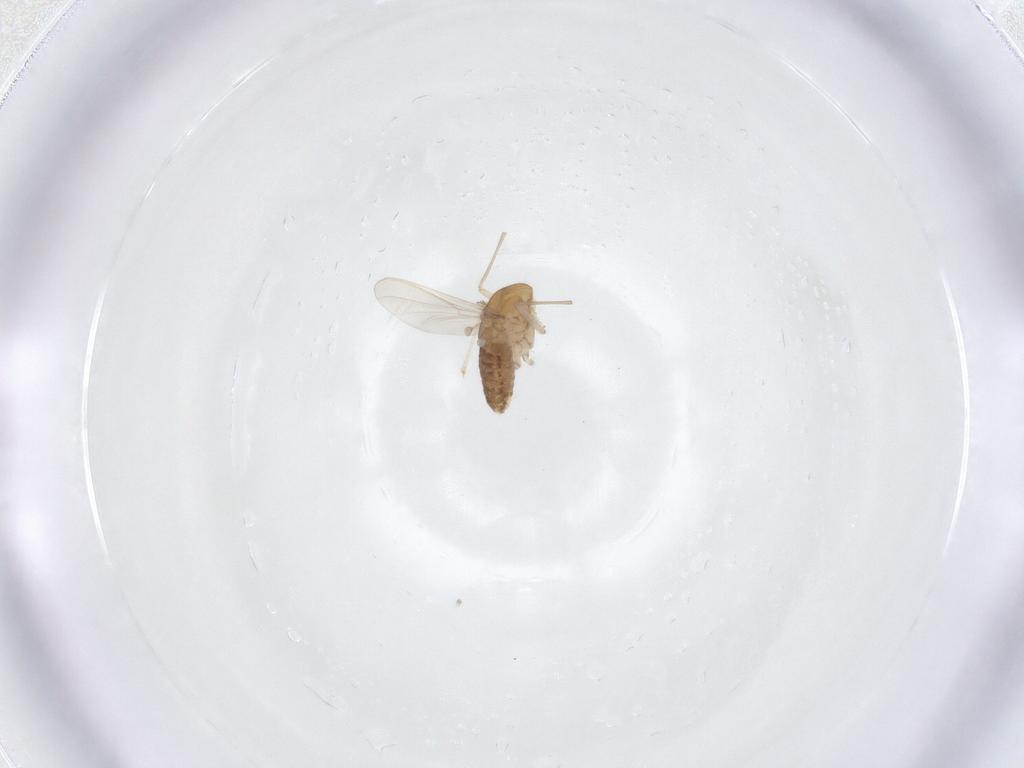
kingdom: Animalia
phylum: Arthropoda
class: Insecta
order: Diptera
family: Chironomidae
